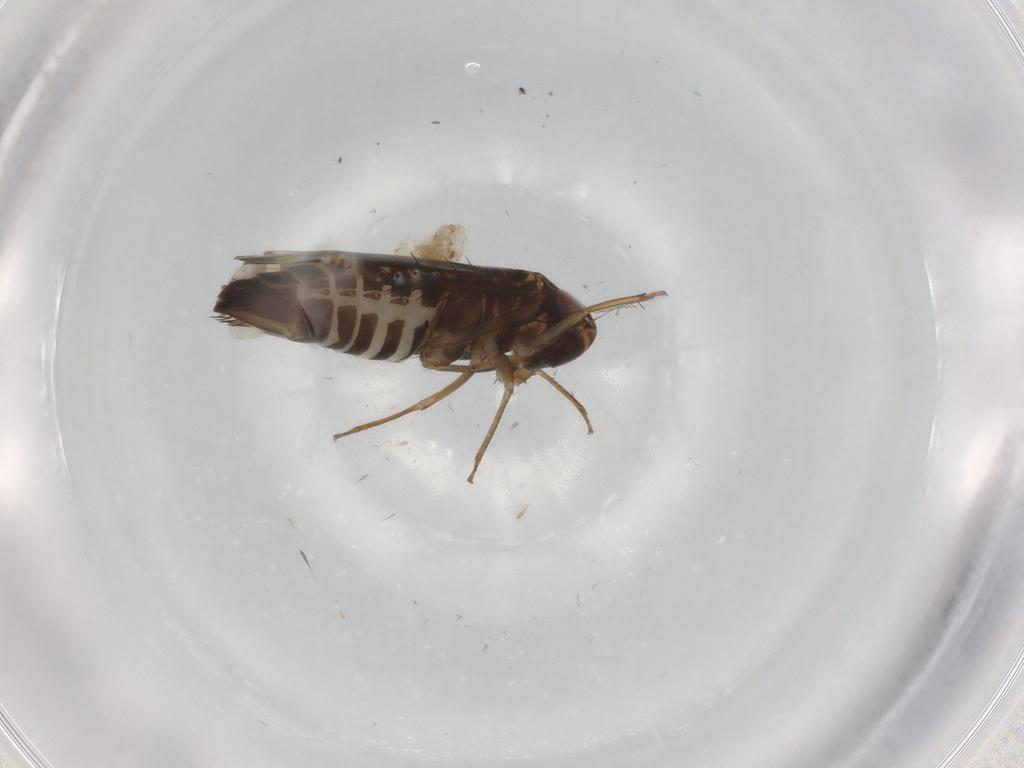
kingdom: Animalia
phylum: Arthropoda
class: Insecta
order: Hemiptera
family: Cicadellidae
